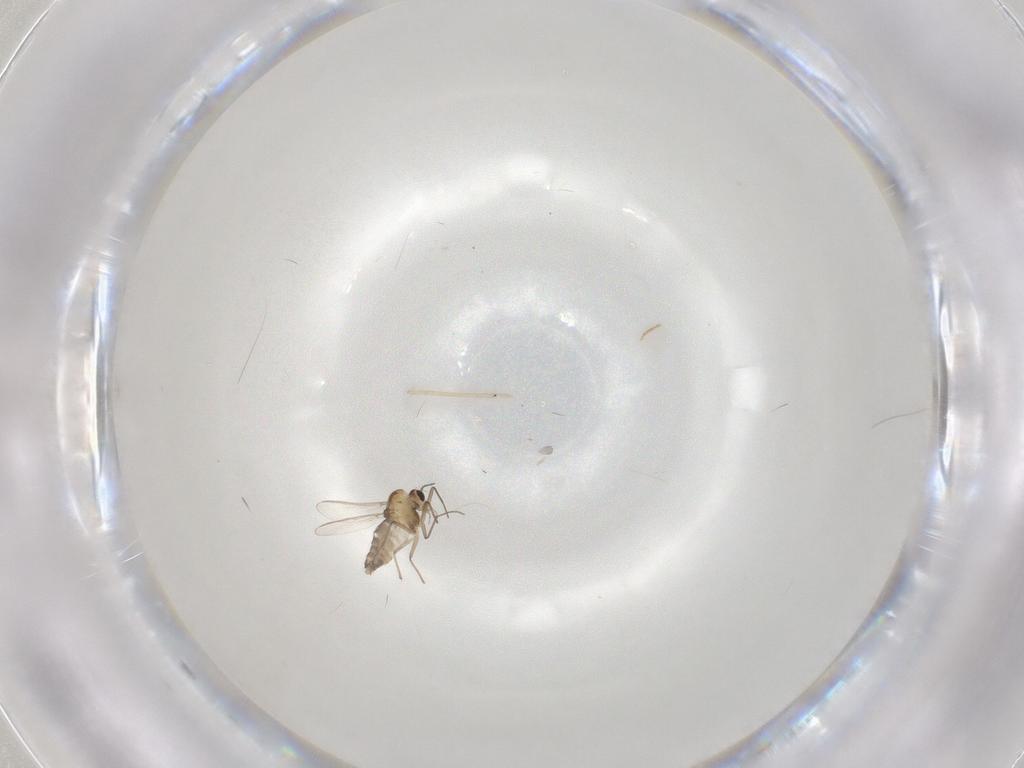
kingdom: Animalia
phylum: Arthropoda
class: Insecta
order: Diptera
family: Chironomidae
